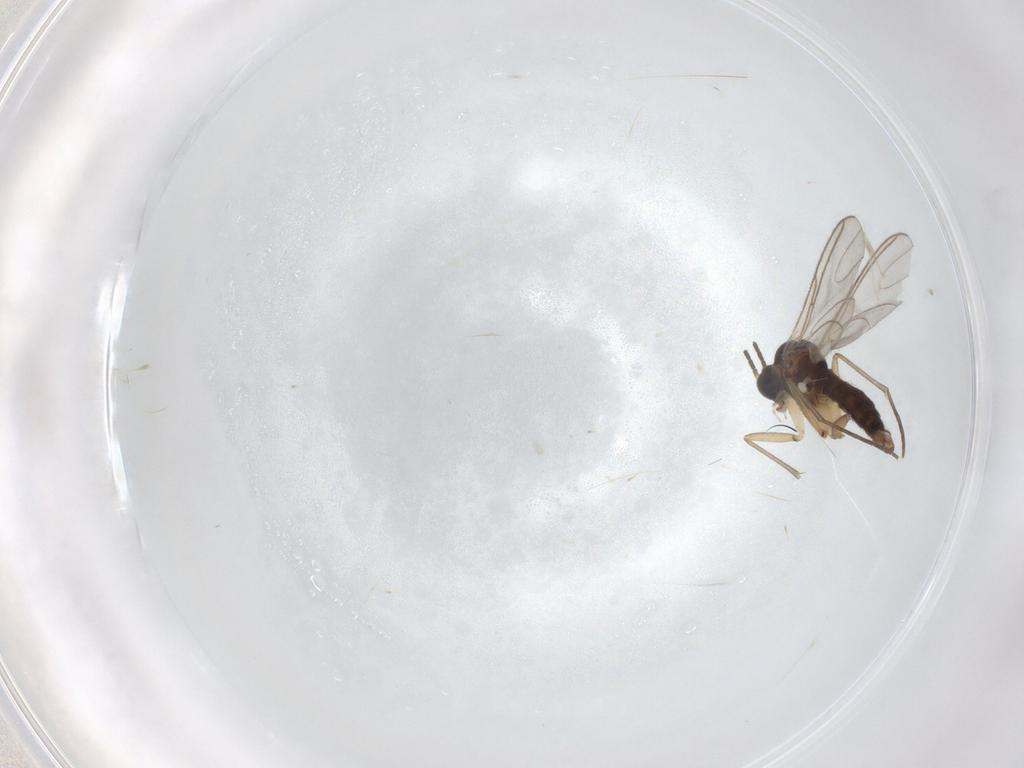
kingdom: Animalia
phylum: Arthropoda
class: Insecta
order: Diptera
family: Sciaridae
